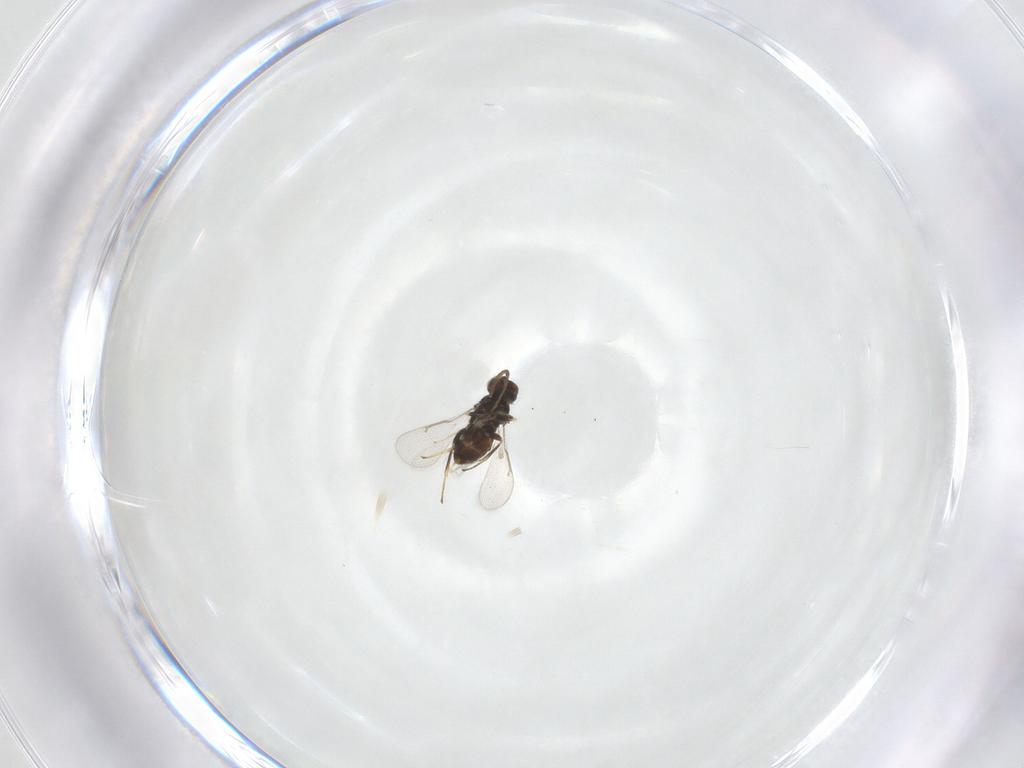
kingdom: Animalia
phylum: Arthropoda
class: Insecta
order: Hymenoptera
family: Aphelinidae
